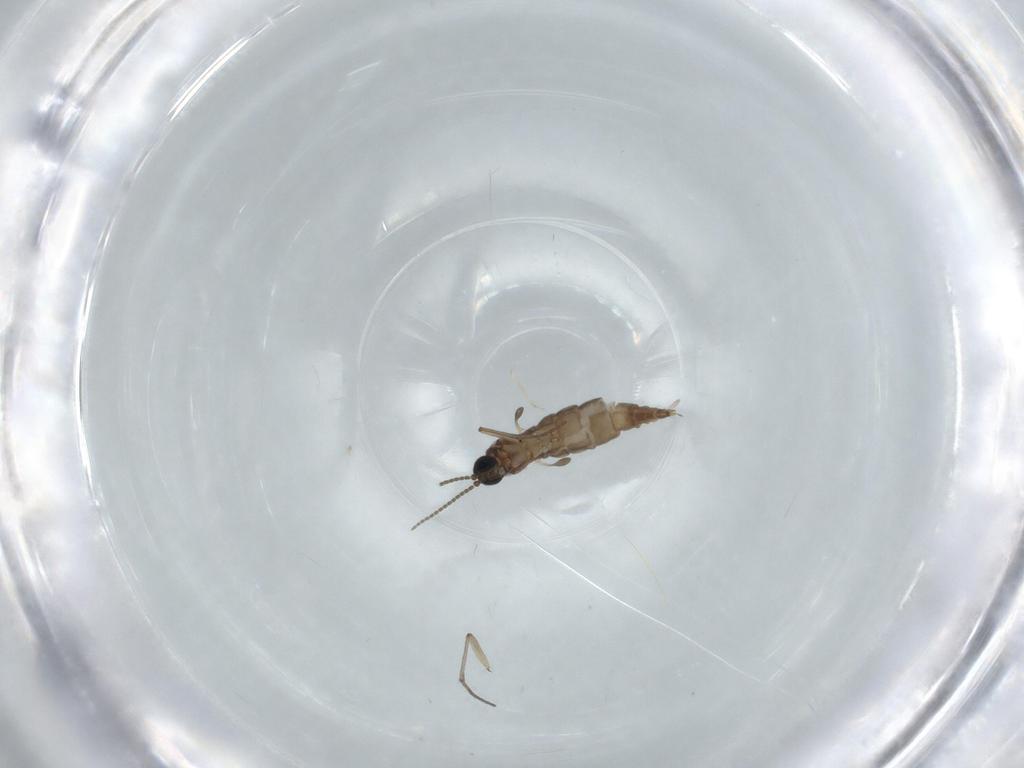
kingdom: Animalia
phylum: Arthropoda
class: Insecta
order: Diptera
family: Sciaridae
